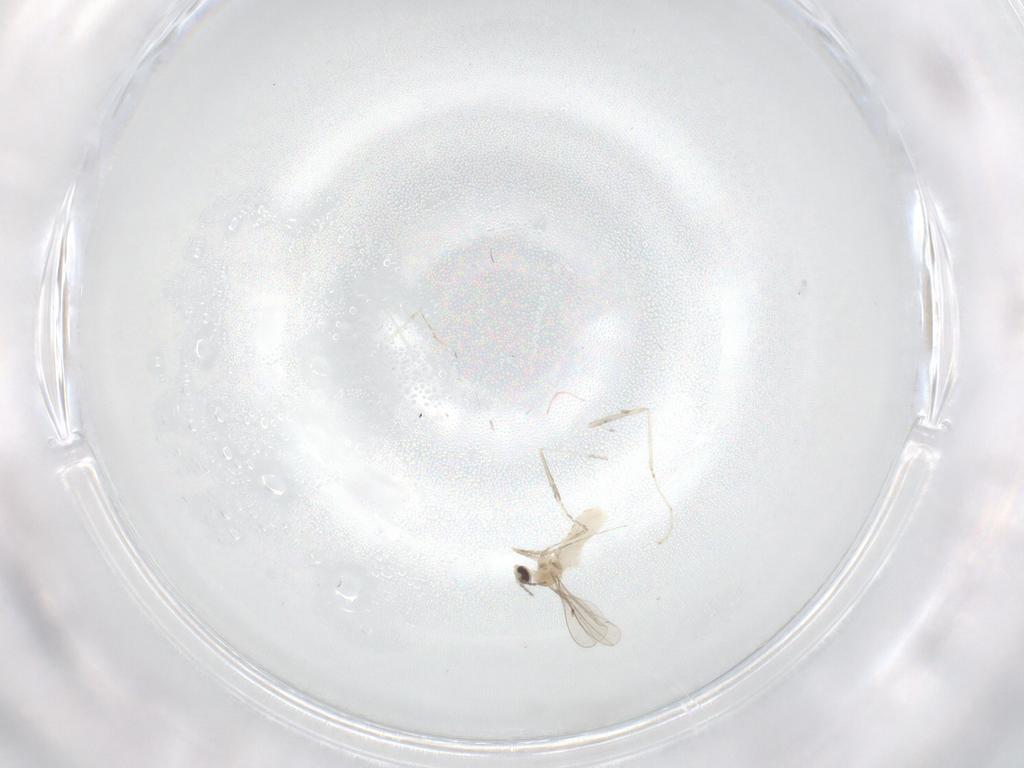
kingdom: Animalia
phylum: Arthropoda
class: Insecta
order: Diptera
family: Cecidomyiidae
